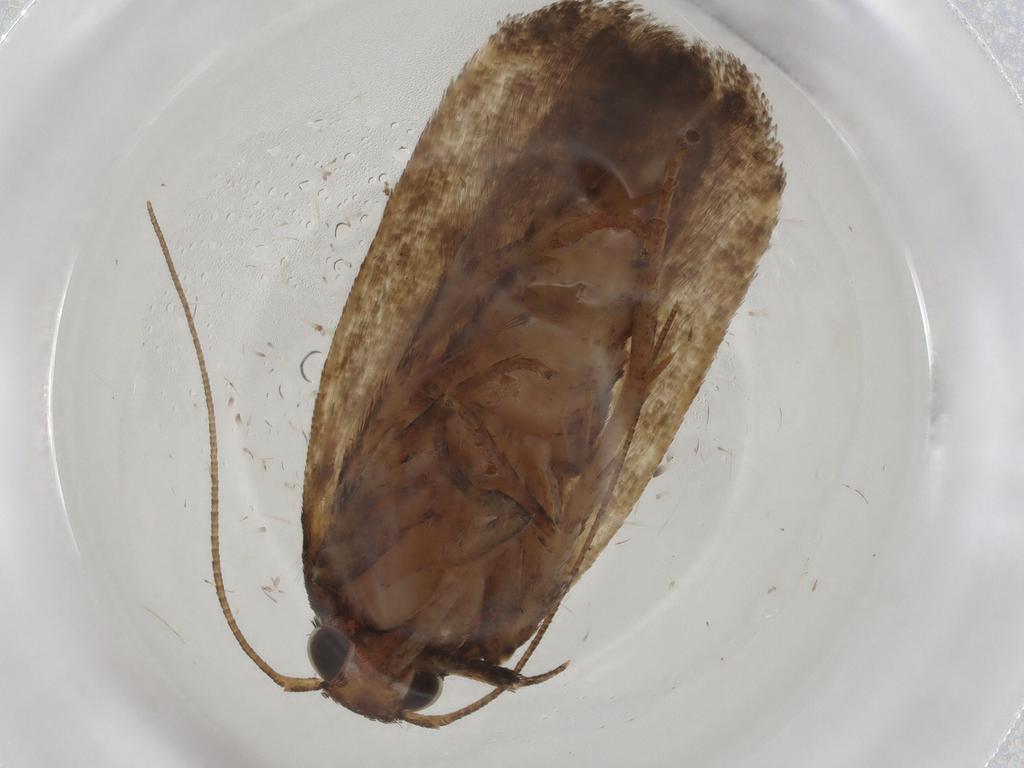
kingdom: Animalia
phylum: Arthropoda
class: Insecta
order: Lepidoptera
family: Gelechiidae
